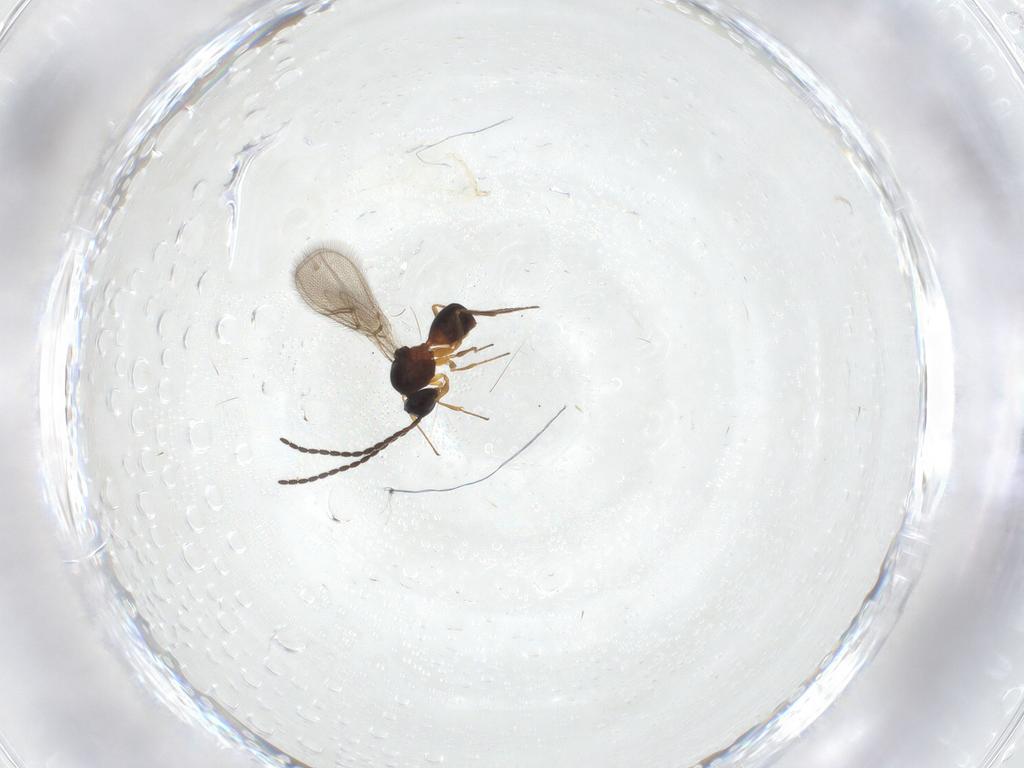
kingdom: Animalia
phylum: Arthropoda
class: Insecta
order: Hymenoptera
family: Figitidae
